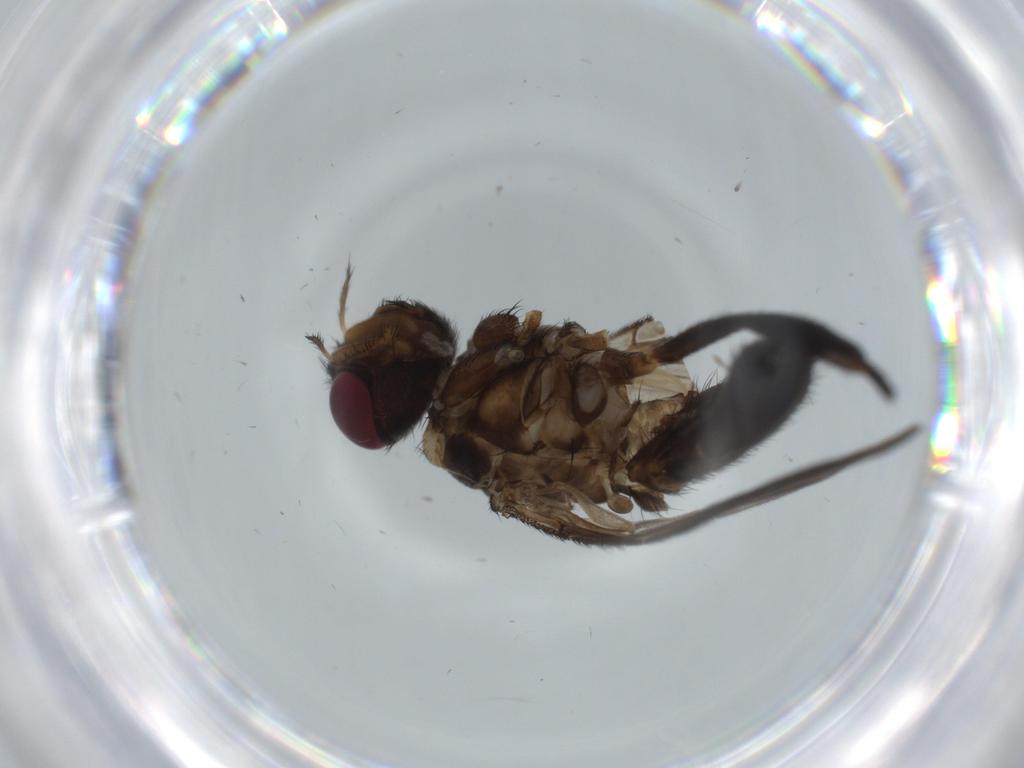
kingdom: Animalia
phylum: Arthropoda
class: Insecta
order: Diptera
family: Calliphoridae
